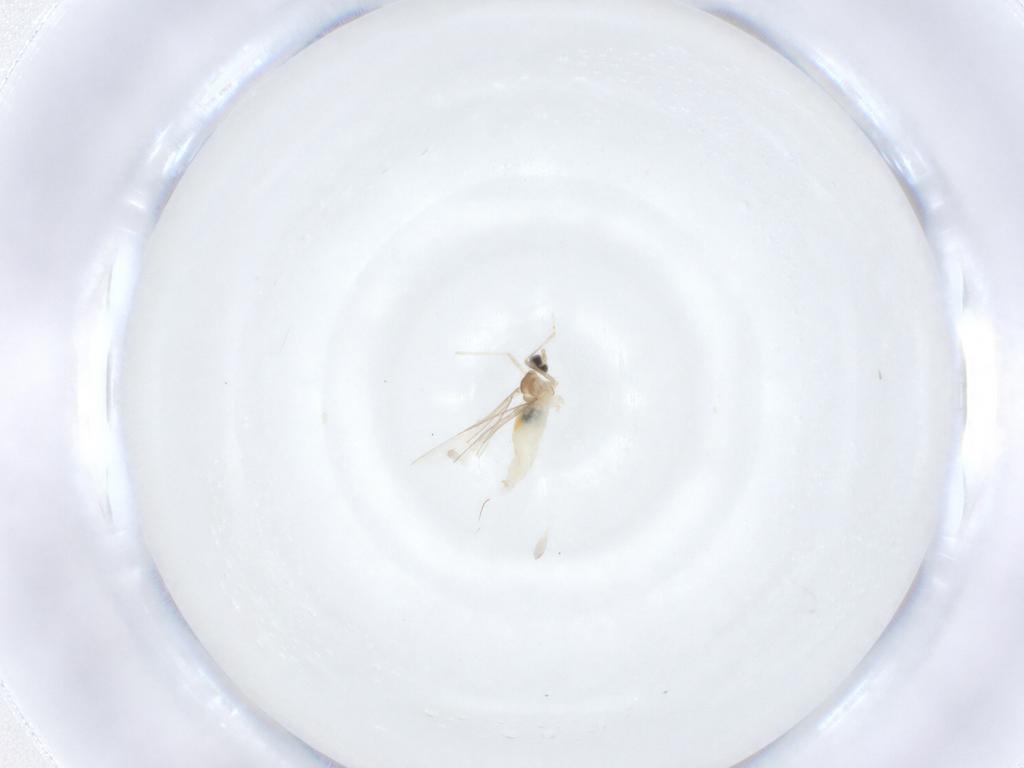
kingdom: Animalia
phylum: Arthropoda
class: Insecta
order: Diptera
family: Cecidomyiidae
